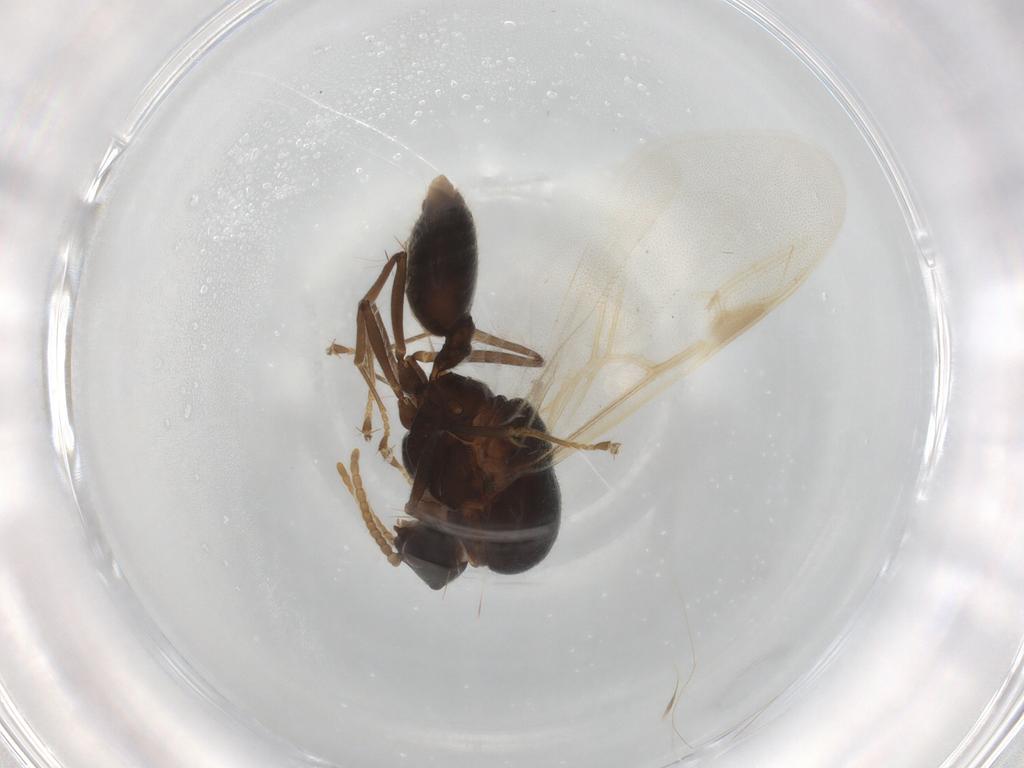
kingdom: Animalia
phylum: Arthropoda
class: Insecta
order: Hymenoptera
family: Formicidae
